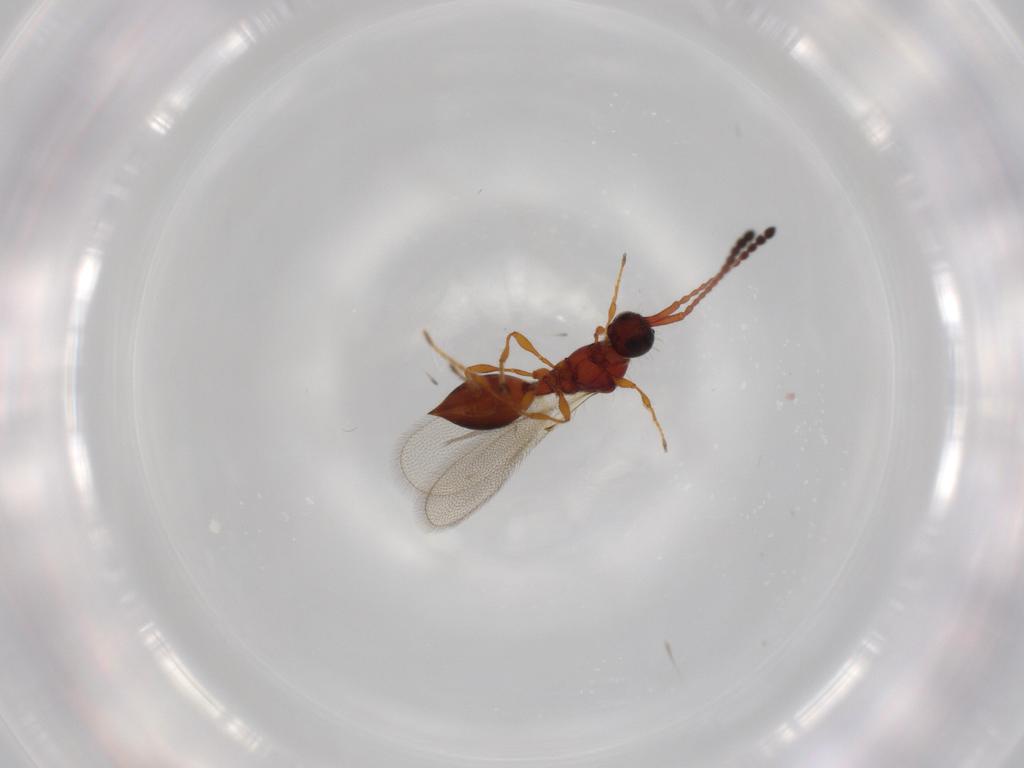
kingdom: Animalia
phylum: Arthropoda
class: Insecta
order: Hymenoptera
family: Diapriidae
